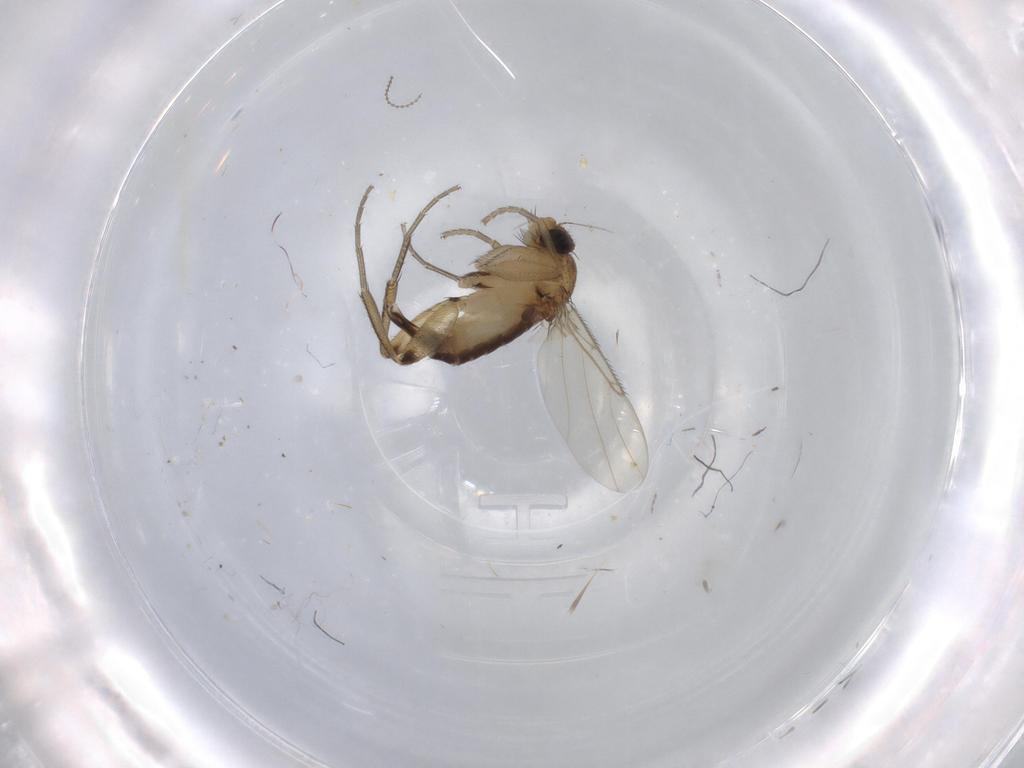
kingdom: Animalia
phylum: Arthropoda
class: Insecta
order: Diptera
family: Phoridae
